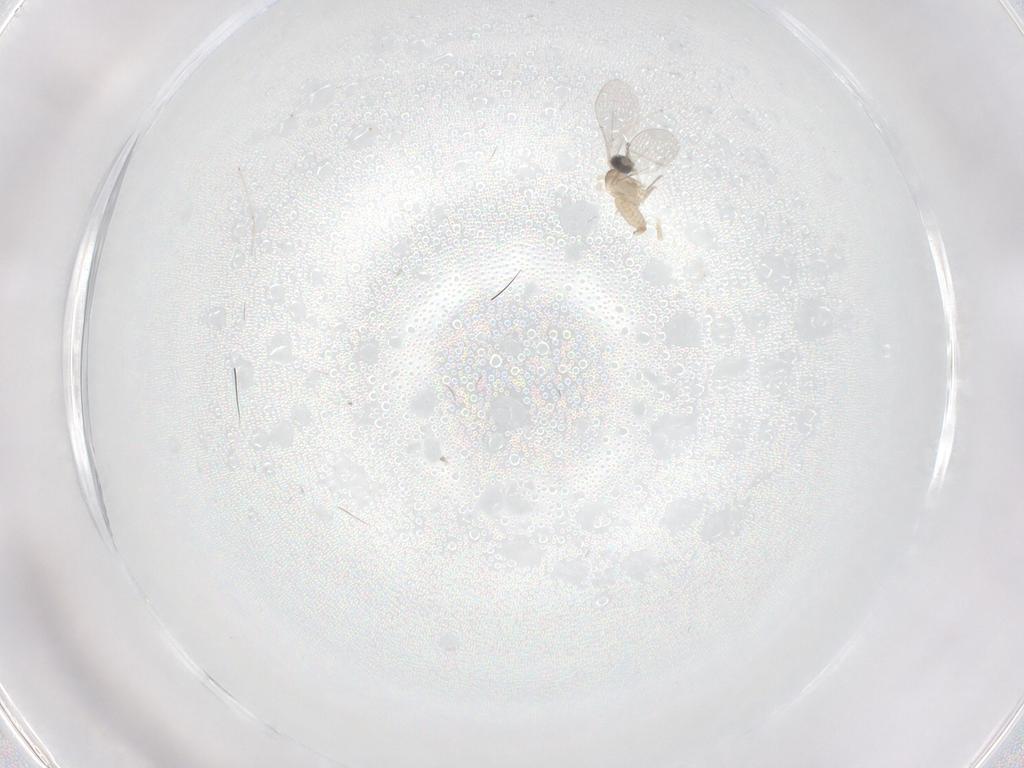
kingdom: Animalia
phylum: Arthropoda
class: Insecta
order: Diptera
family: Cecidomyiidae
